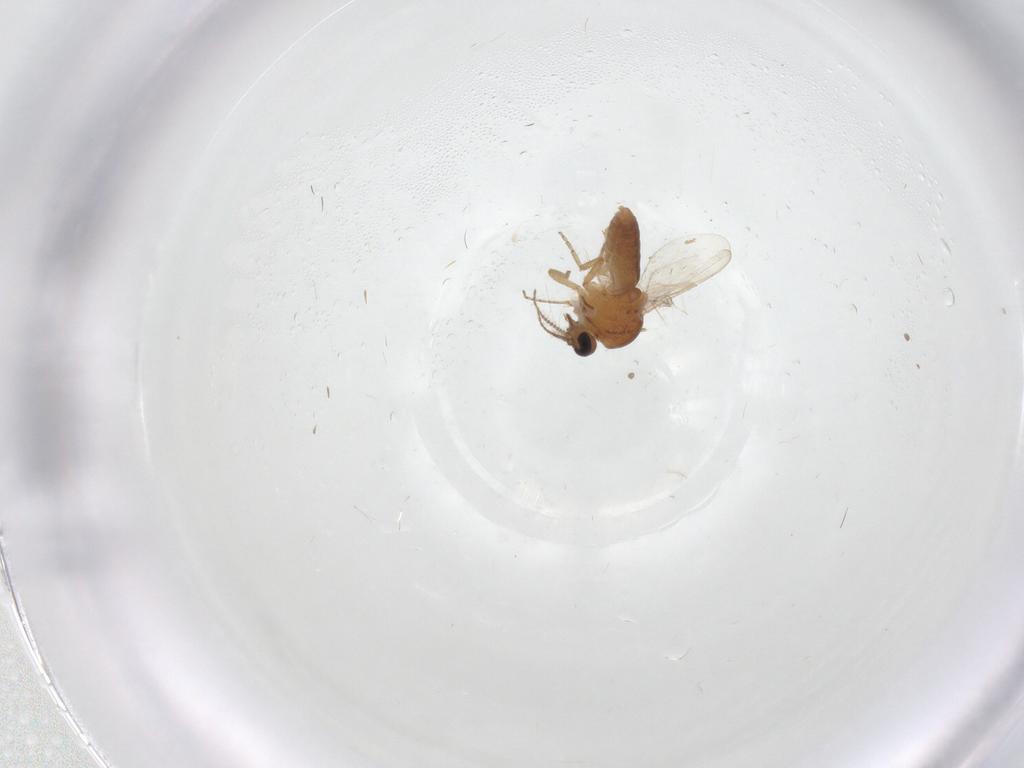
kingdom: Animalia
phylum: Arthropoda
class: Insecta
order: Diptera
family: Ceratopogonidae
